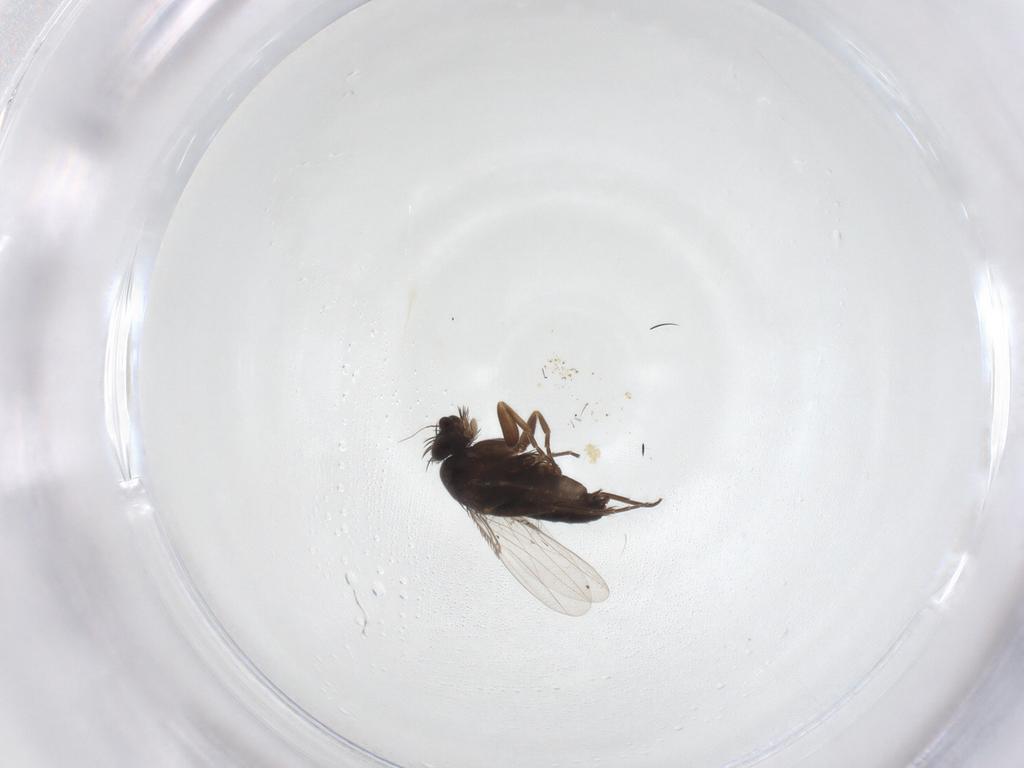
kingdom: Animalia
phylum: Arthropoda
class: Insecta
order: Diptera
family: Phoridae
